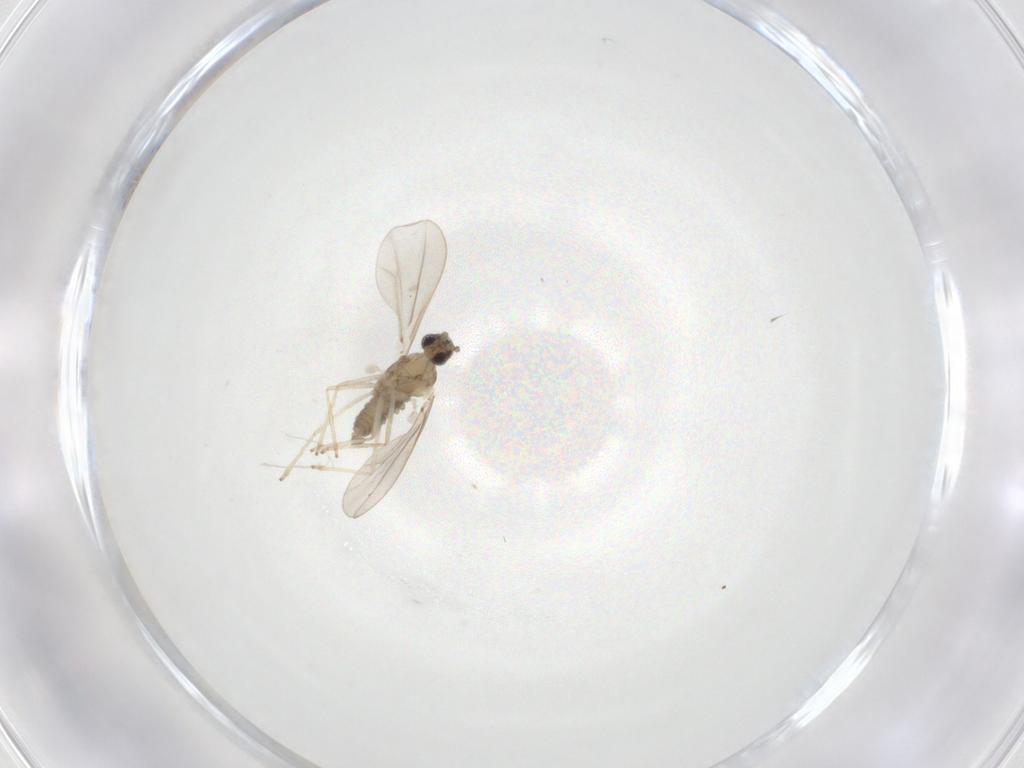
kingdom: Animalia
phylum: Arthropoda
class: Insecta
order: Diptera
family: Cecidomyiidae
